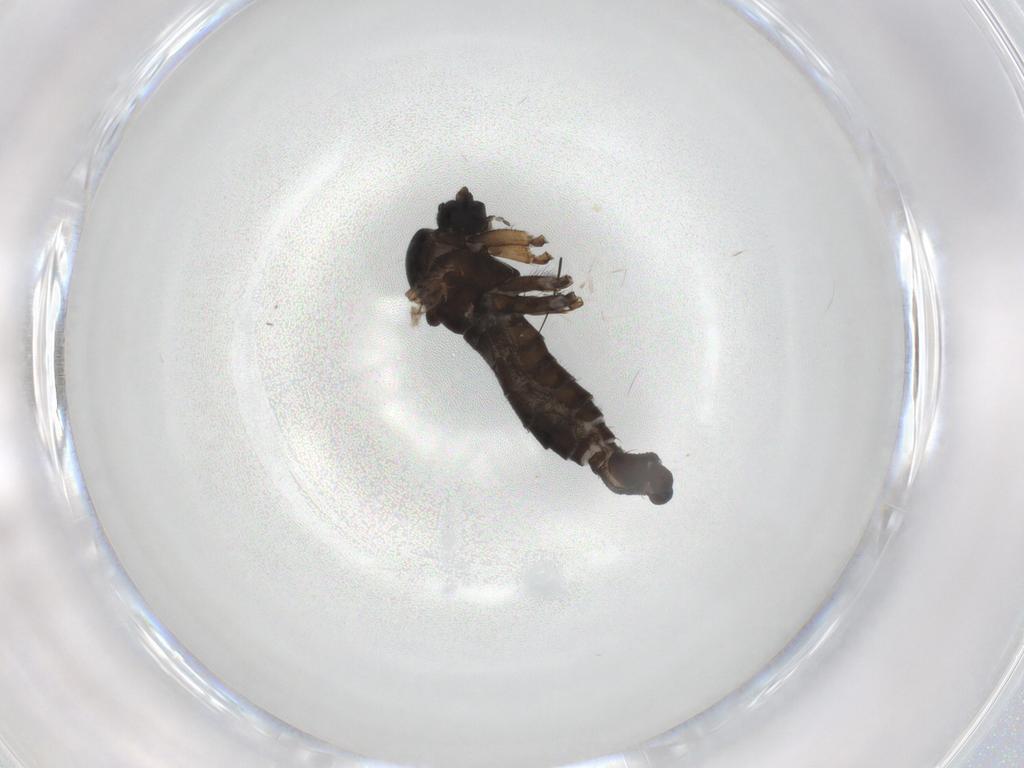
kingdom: Animalia
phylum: Arthropoda
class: Insecta
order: Diptera
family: Sciaridae
